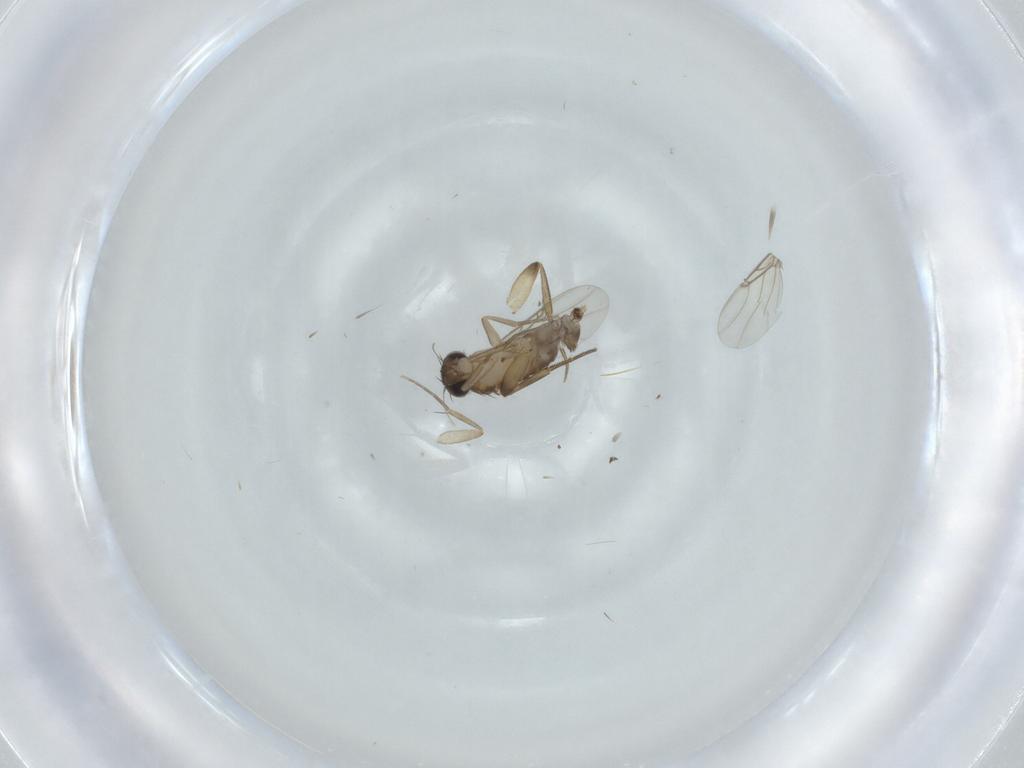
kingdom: Animalia
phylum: Arthropoda
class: Insecta
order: Diptera
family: Phoridae
